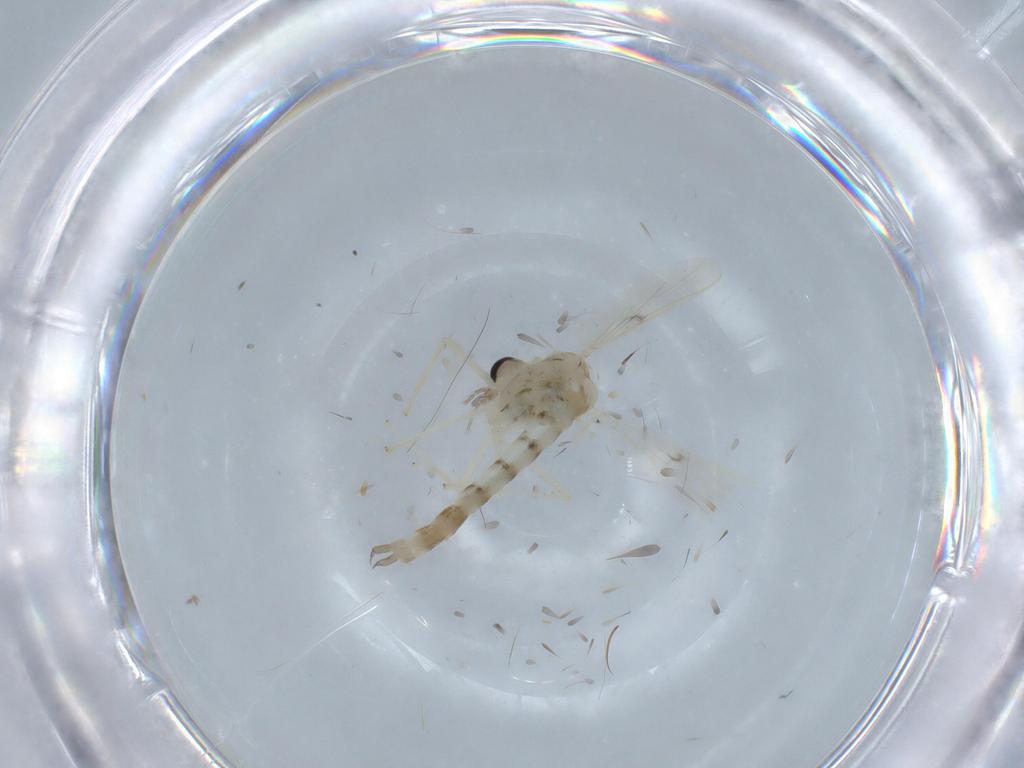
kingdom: Animalia
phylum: Arthropoda
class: Insecta
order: Diptera
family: Chironomidae
